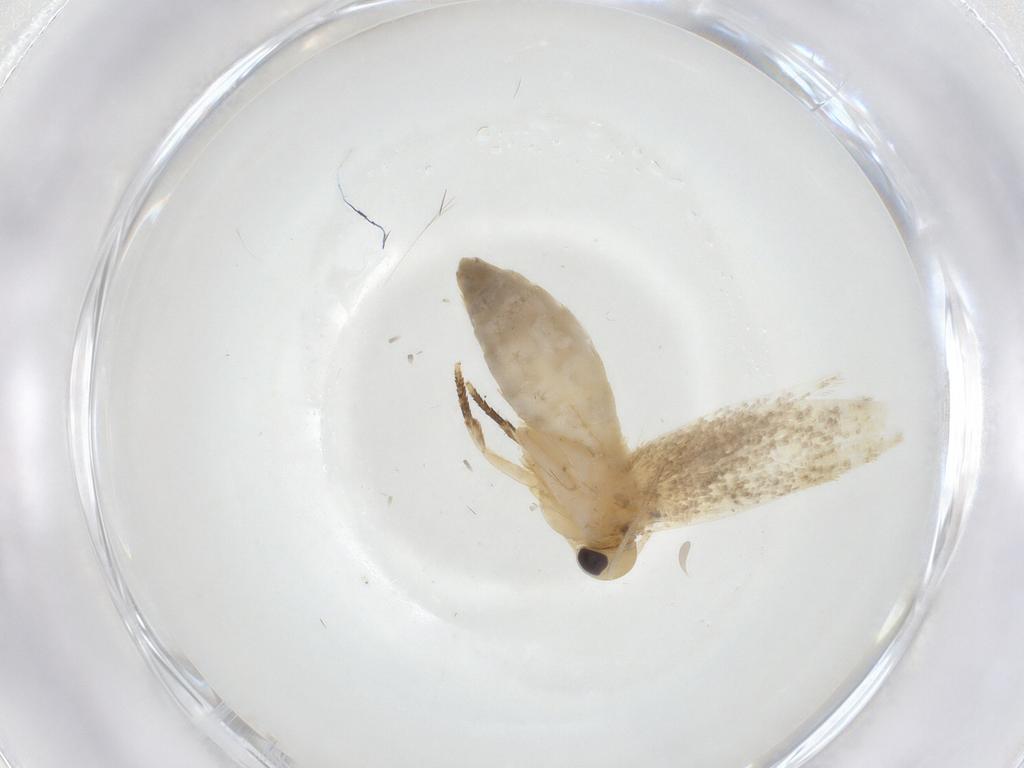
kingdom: Animalia
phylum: Arthropoda
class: Insecta
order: Lepidoptera
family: Erebidae
